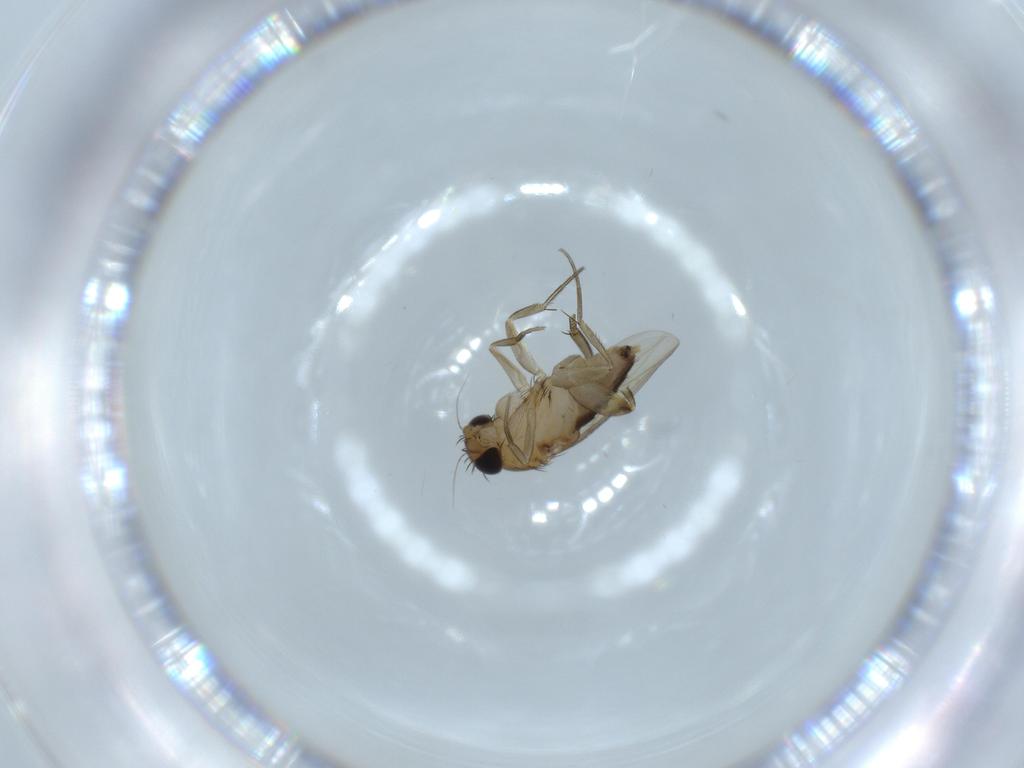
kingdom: Animalia
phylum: Arthropoda
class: Insecta
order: Diptera
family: Phoridae
